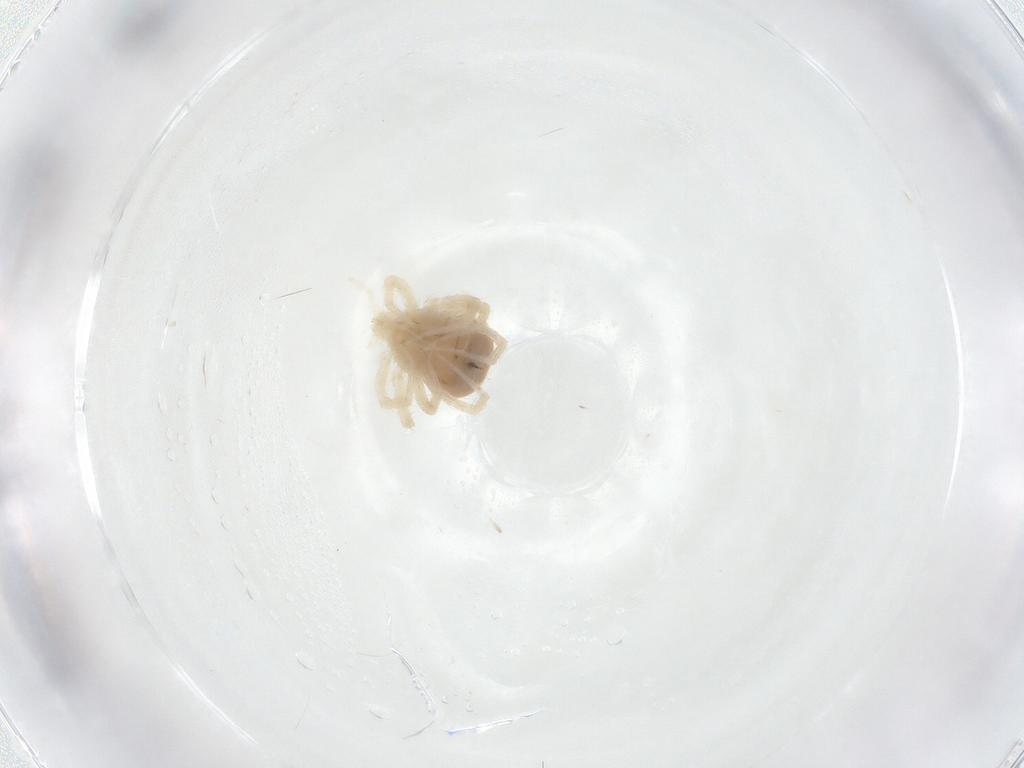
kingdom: Animalia
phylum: Arthropoda
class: Arachnida
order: Trombidiformes
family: Anystidae
